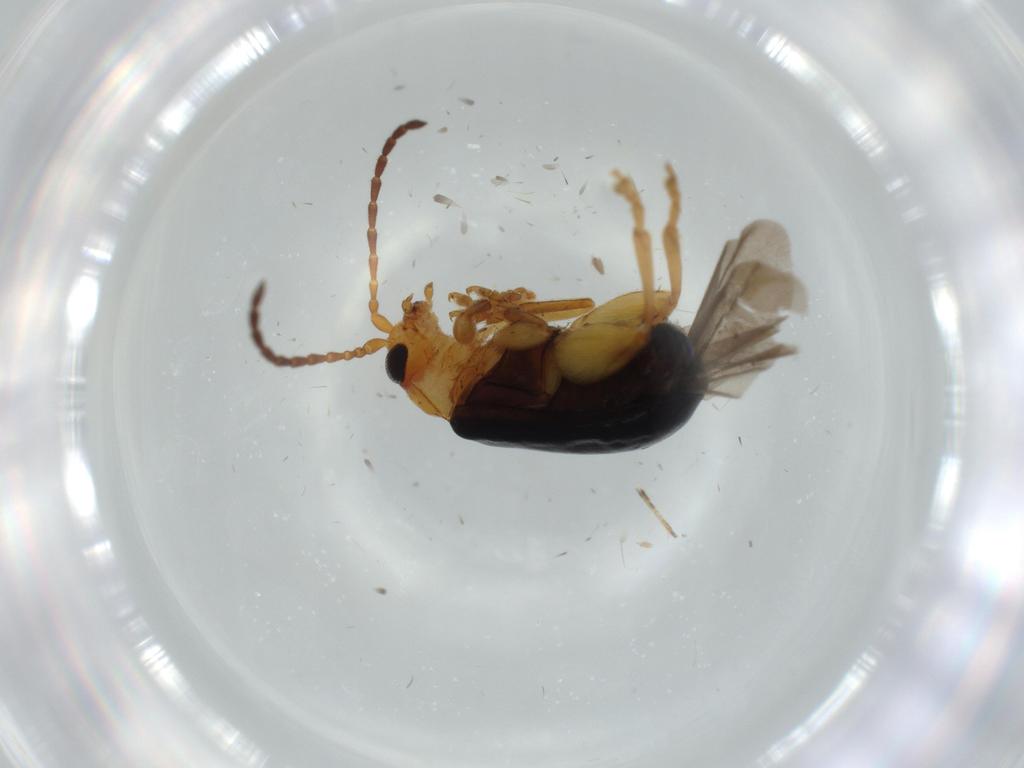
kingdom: Animalia
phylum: Arthropoda
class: Insecta
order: Coleoptera
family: Chrysomelidae
